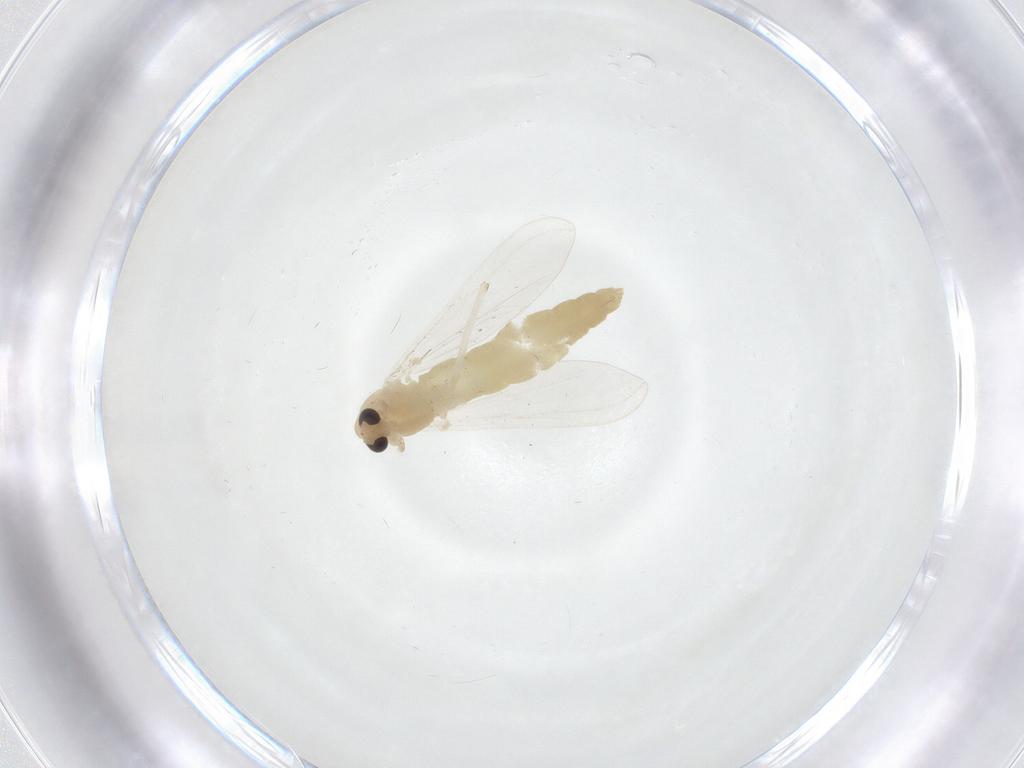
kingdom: Animalia
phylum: Arthropoda
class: Insecta
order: Diptera
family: Chironomidae
